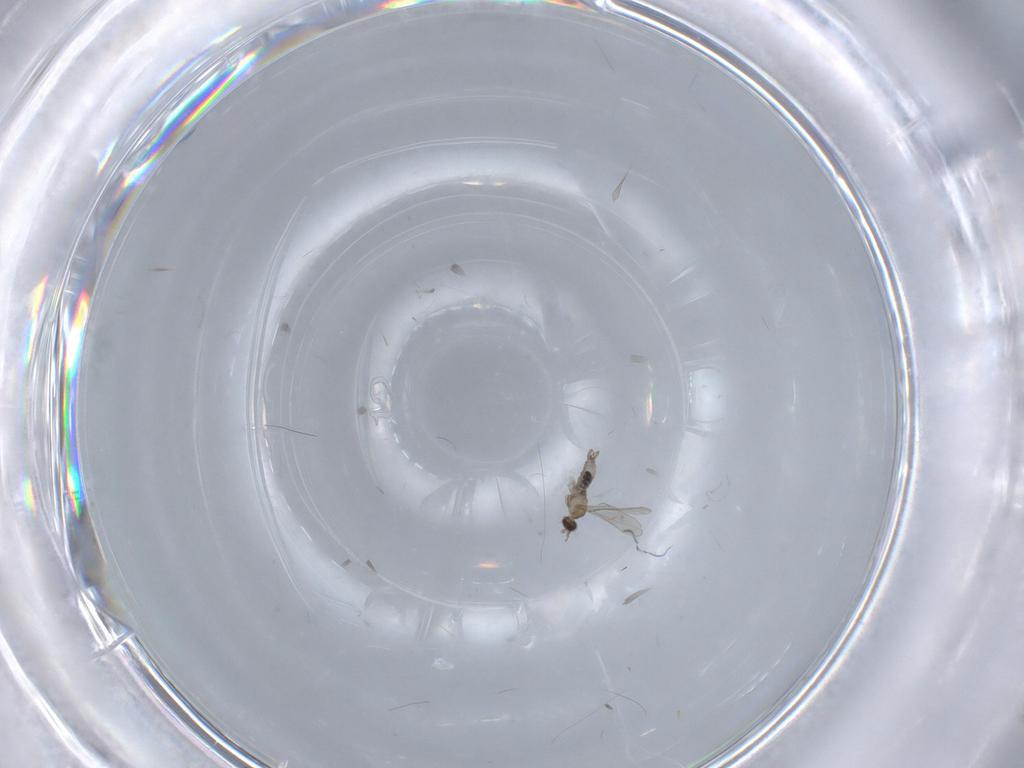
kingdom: Animalia
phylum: Arthropoda
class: Insecta
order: Diptera
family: Cecidomyiidae
